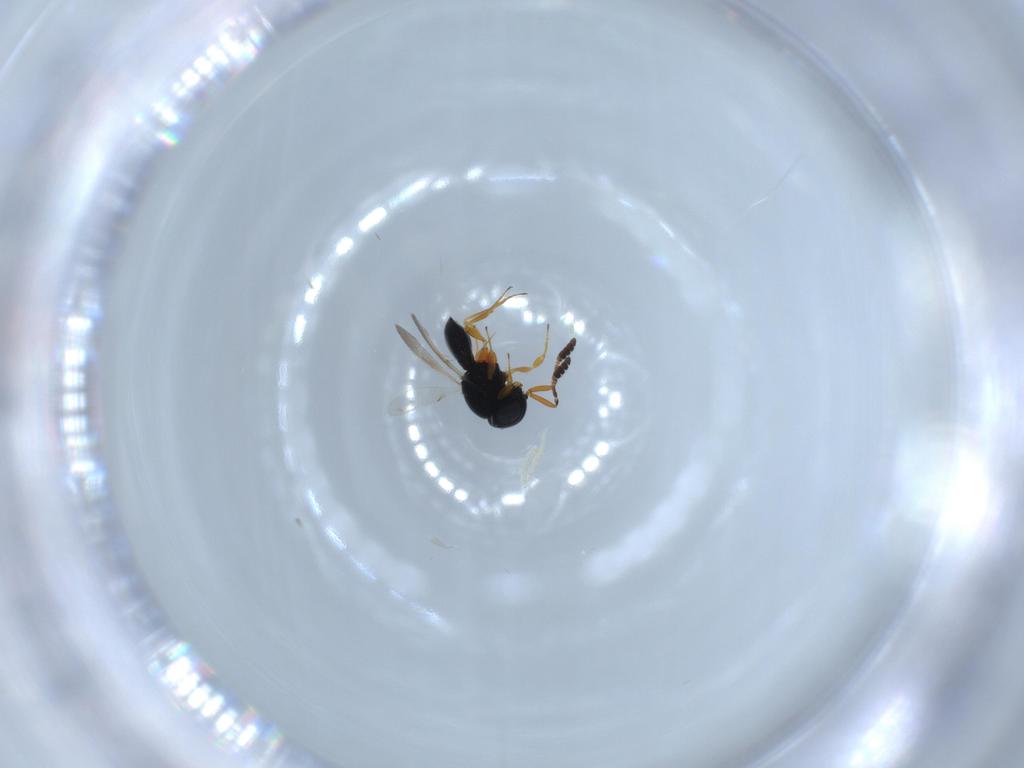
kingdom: Animalia
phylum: Arthropoda
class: Insecta
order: Hymenoptera
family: Scelionidae
